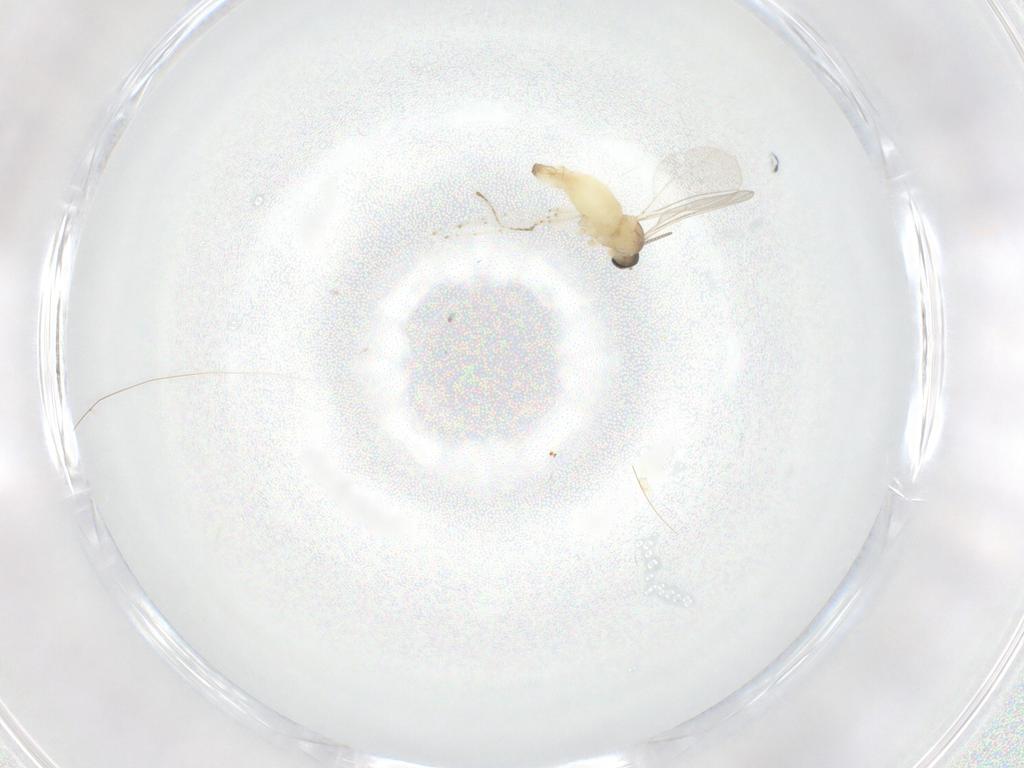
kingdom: Animalia
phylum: Arthropoda
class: Insecta
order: Diptera
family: Cecidomyiidae
